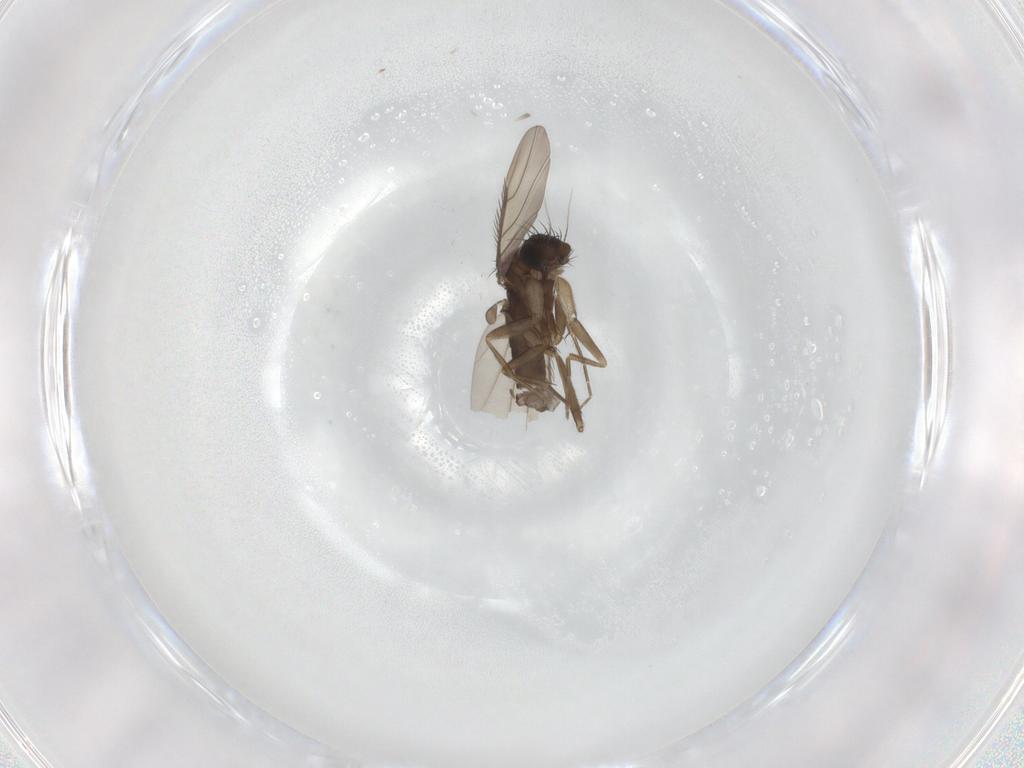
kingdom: Animalia
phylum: Arthropoda
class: Insecta
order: Diptera
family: Phoridae
